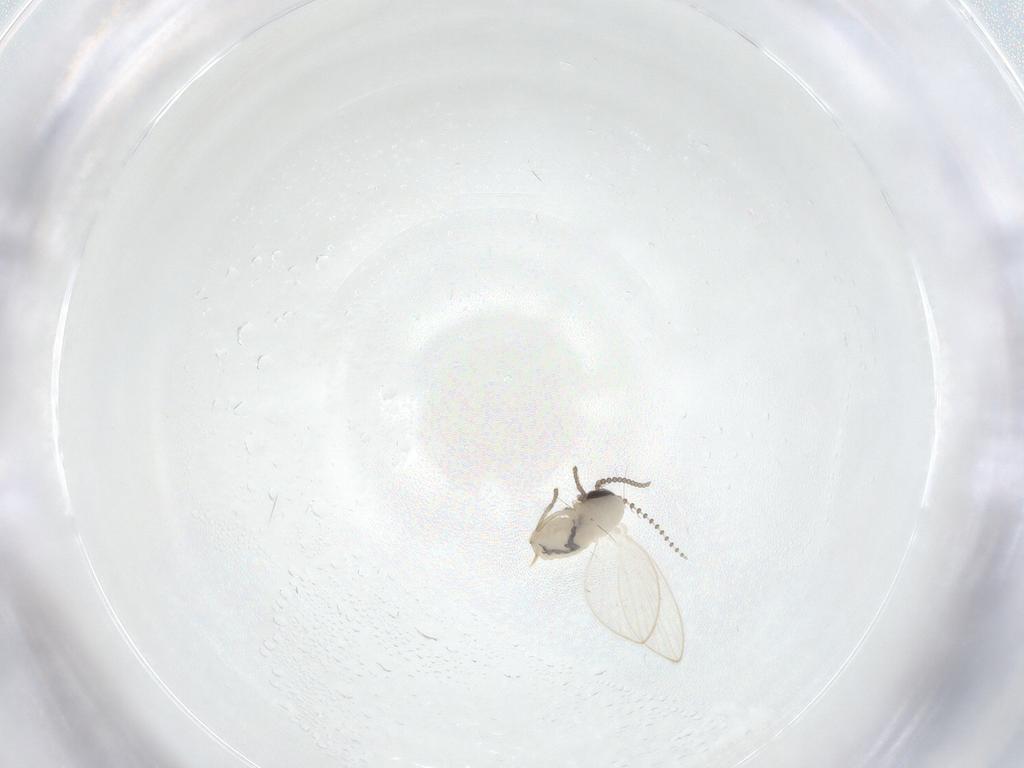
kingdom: Animalia
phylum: Arthropoda
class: Insecta
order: Diptera
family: Psychodidae
